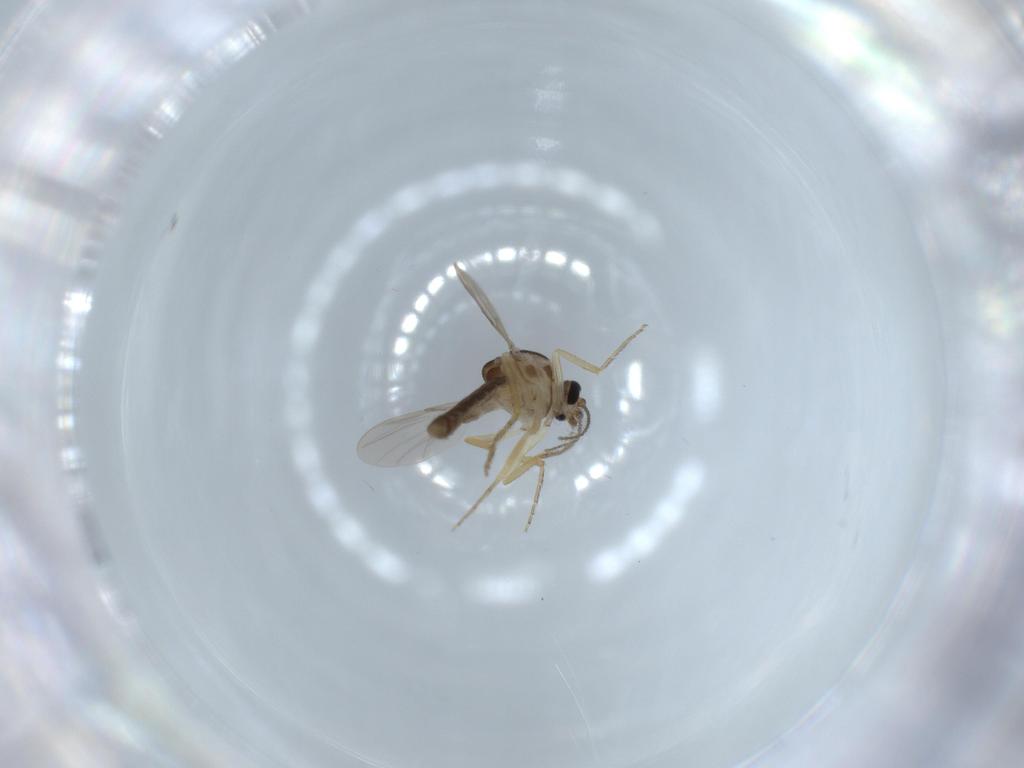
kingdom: Animalia
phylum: Arthropoda
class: Insecta
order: Diptera
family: Ceratopogonidae
